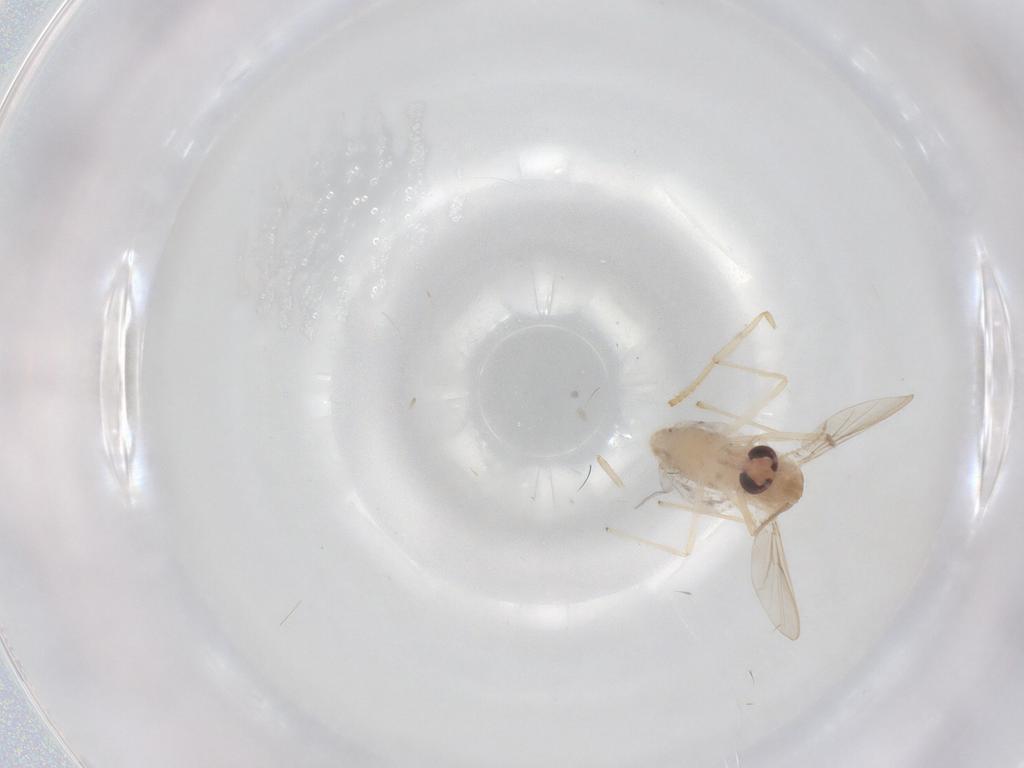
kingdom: Animalia
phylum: Arthropoda
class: Insecta
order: Diptera
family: Chironomidae
